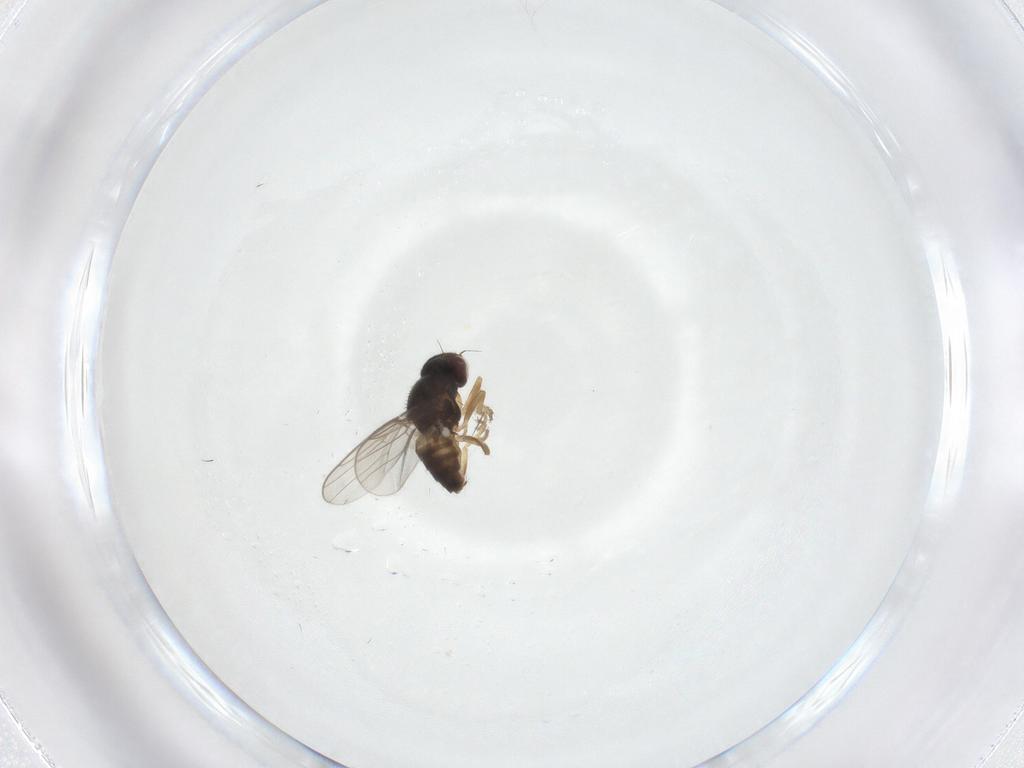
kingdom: Animalia
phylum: Arthropoda
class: Insecta
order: Diptera
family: Chloropidae
